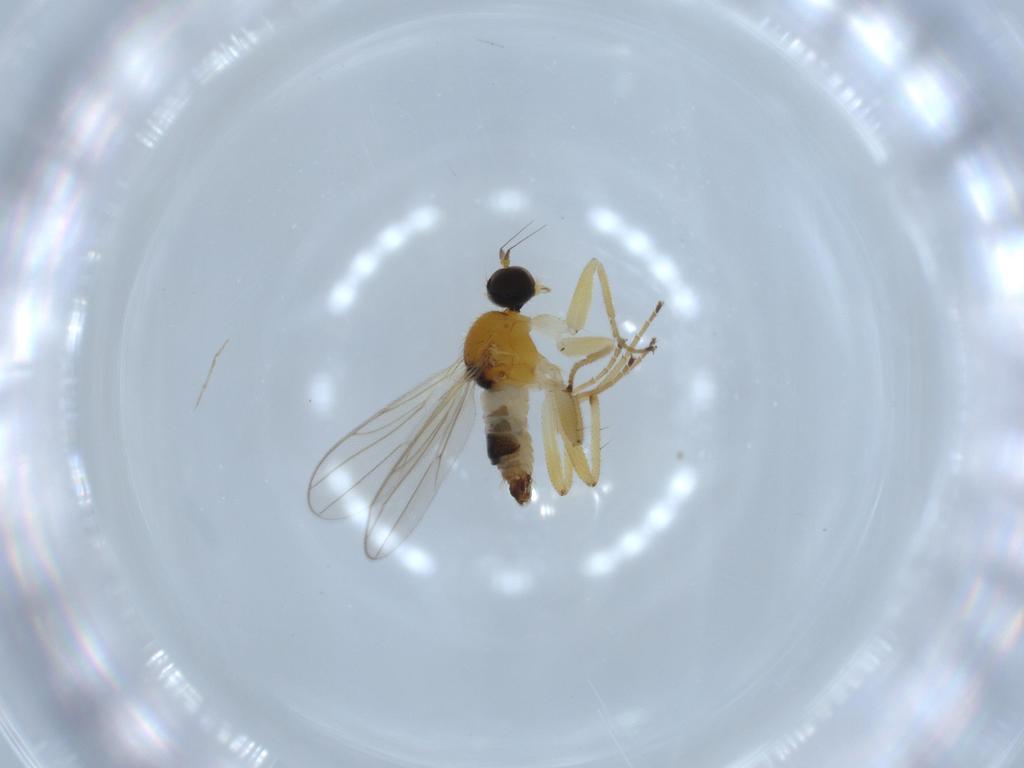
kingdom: Animalia
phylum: Arthropoda
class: Insecta
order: Diptera
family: Hybotidae
